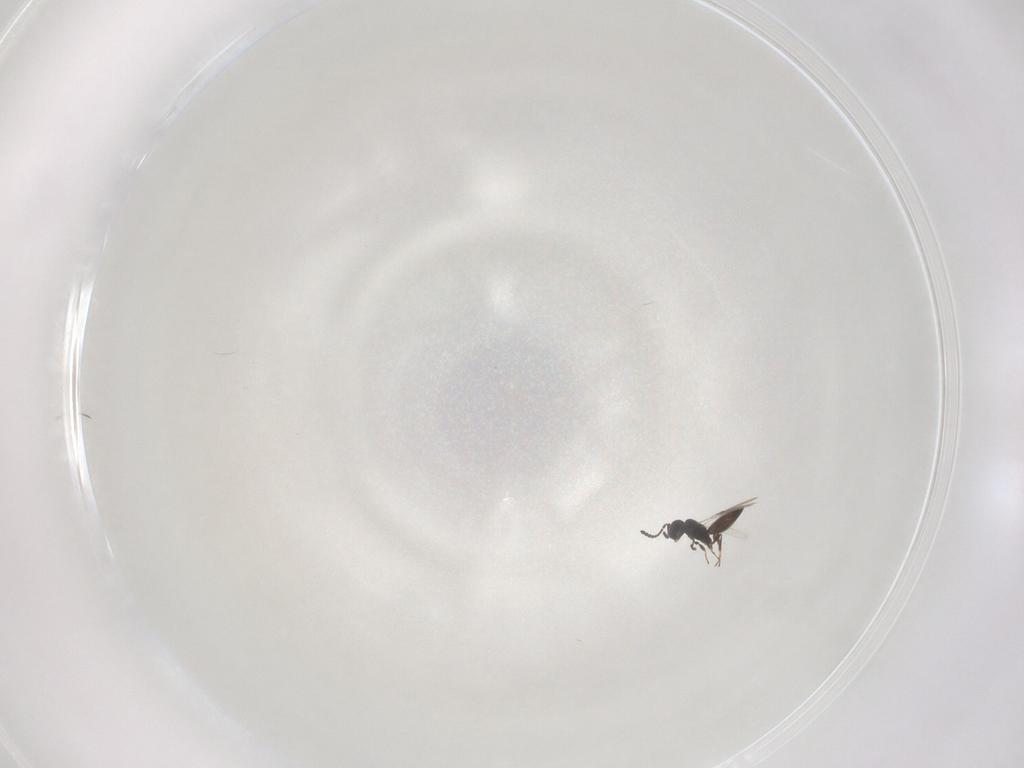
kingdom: Animalia
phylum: Arthropoda
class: Insecta
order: Hymenoptera
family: Scelionidae
